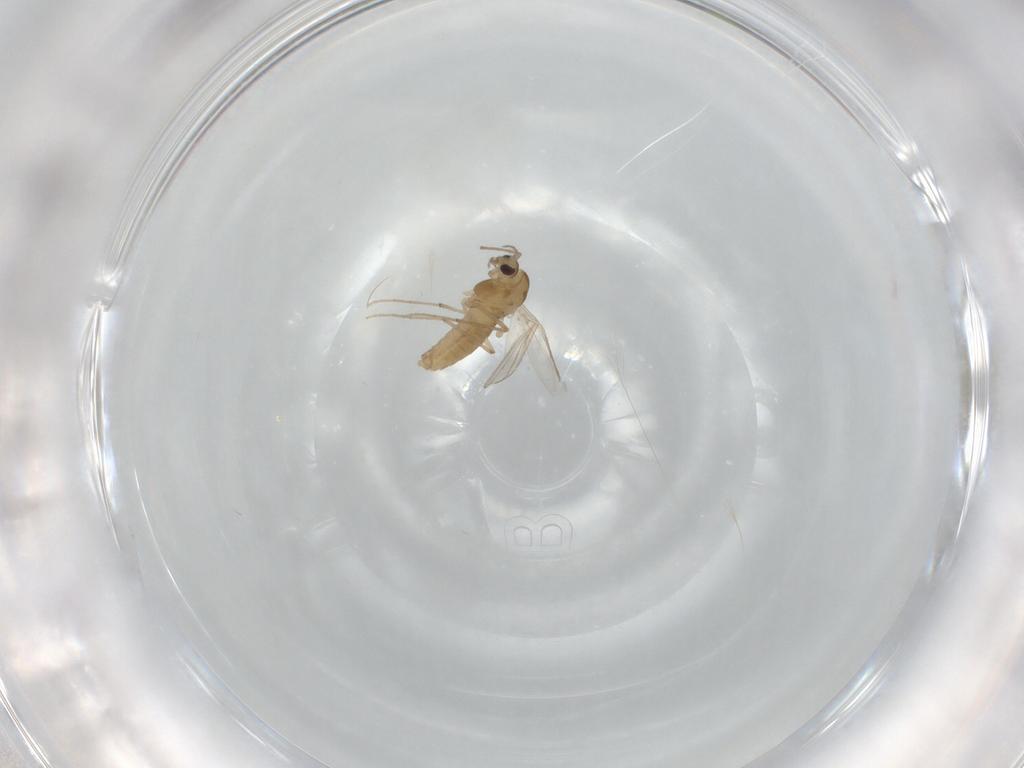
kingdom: Animalia
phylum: Arthropoda
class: Insecta
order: Diptera
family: Chironomidae
